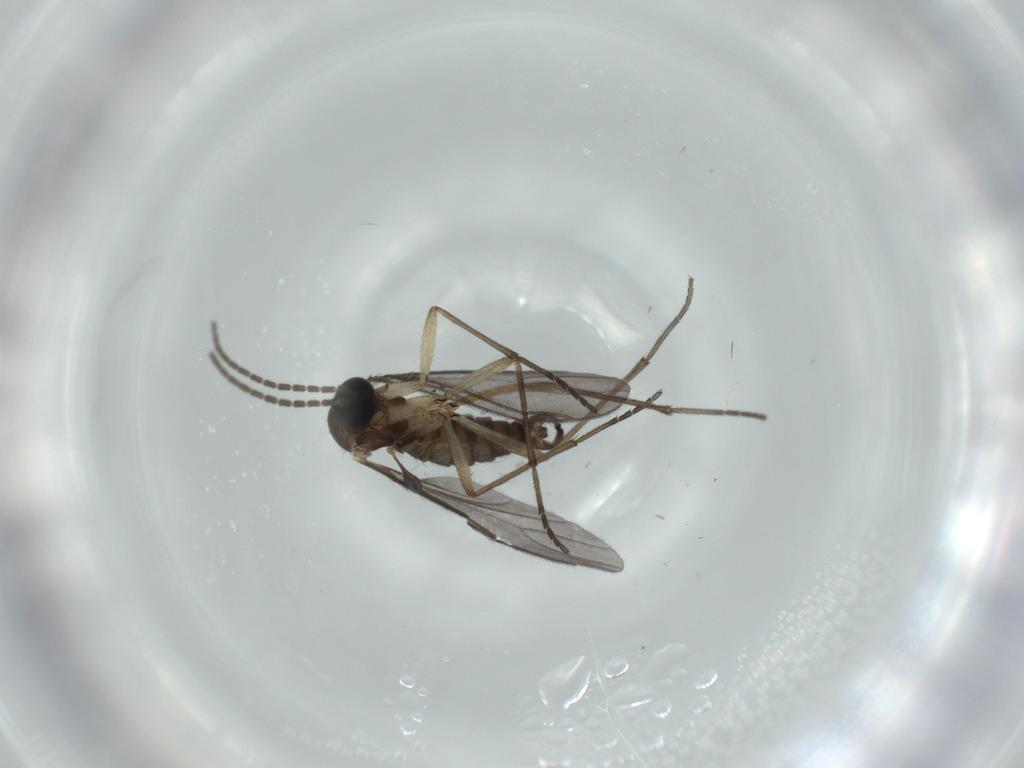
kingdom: Animalia
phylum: Arthropoda
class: Insecta
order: Diptera
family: Sciaridae
